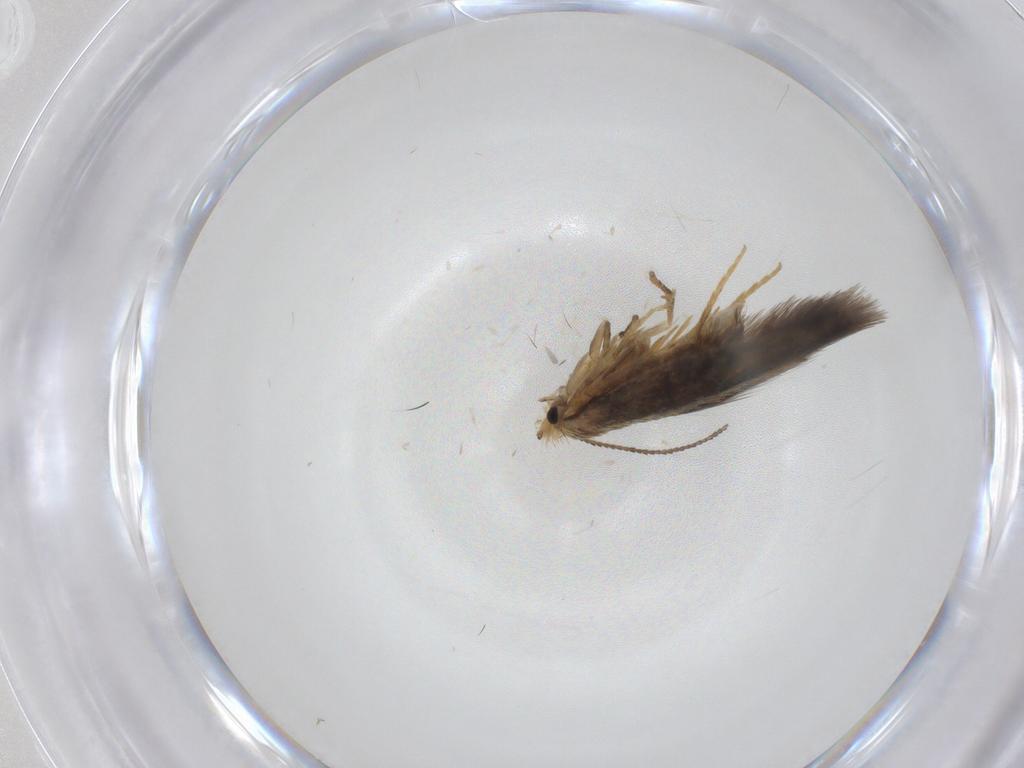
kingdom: Animalia
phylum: Arthropoda
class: Insecta
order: Lepidoptera
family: Nepticulidae
